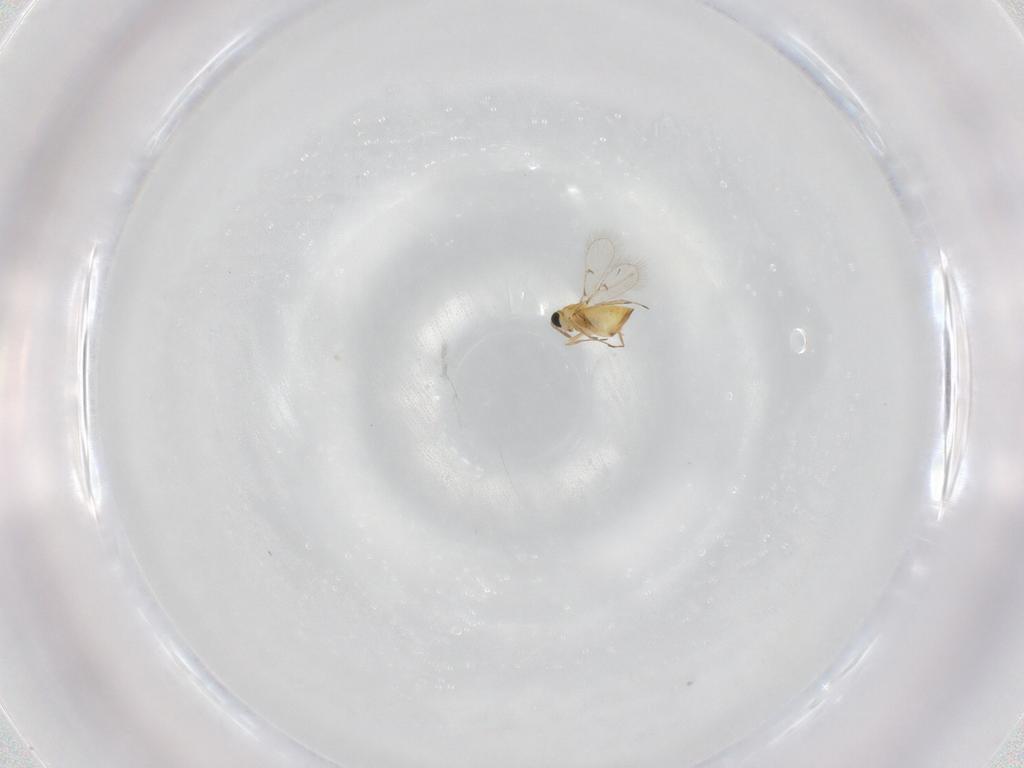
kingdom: Animalia
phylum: Arthropoda
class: Insecta
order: Hymenoptera
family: Trichogrammatidae
